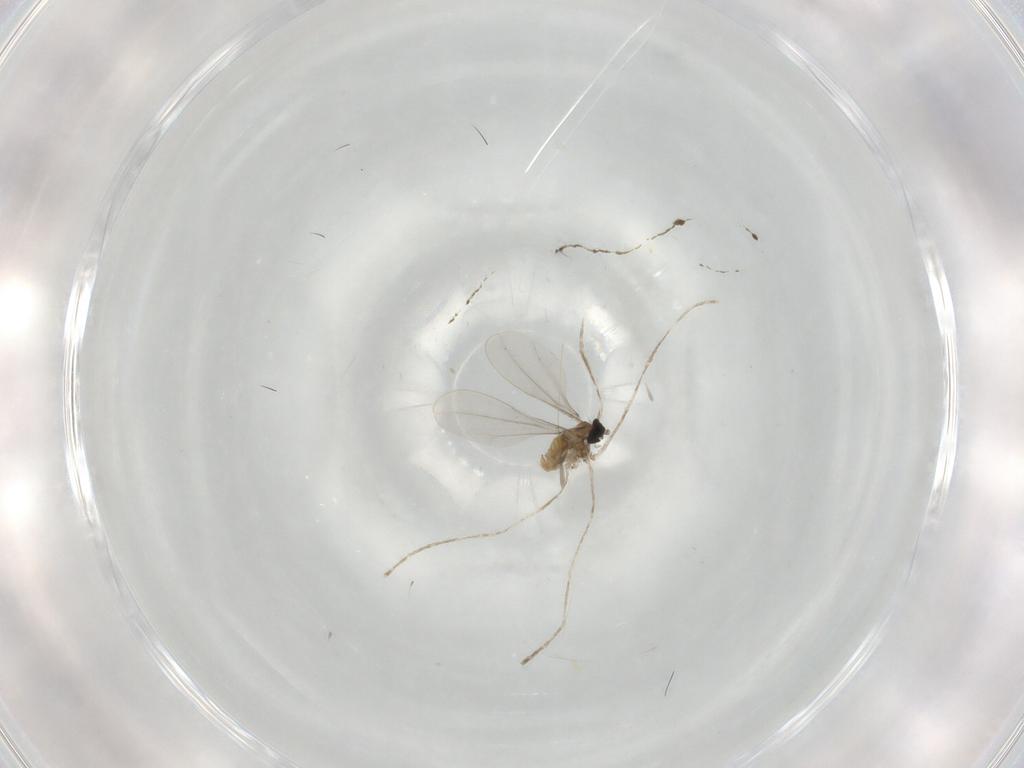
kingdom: Animalia
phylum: Arthropoda
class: Insecta
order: Diptera
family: Cecidomyiidae
